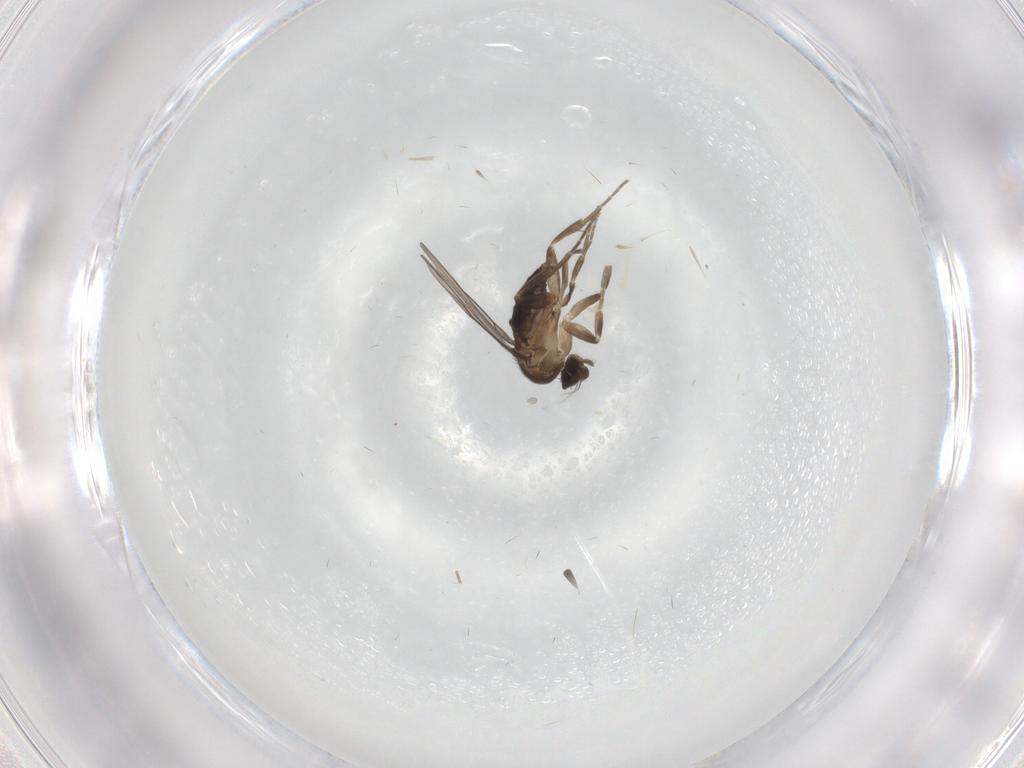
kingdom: Animalia
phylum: Arthropoda
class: Insecta
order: Diptera
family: Phoridae
